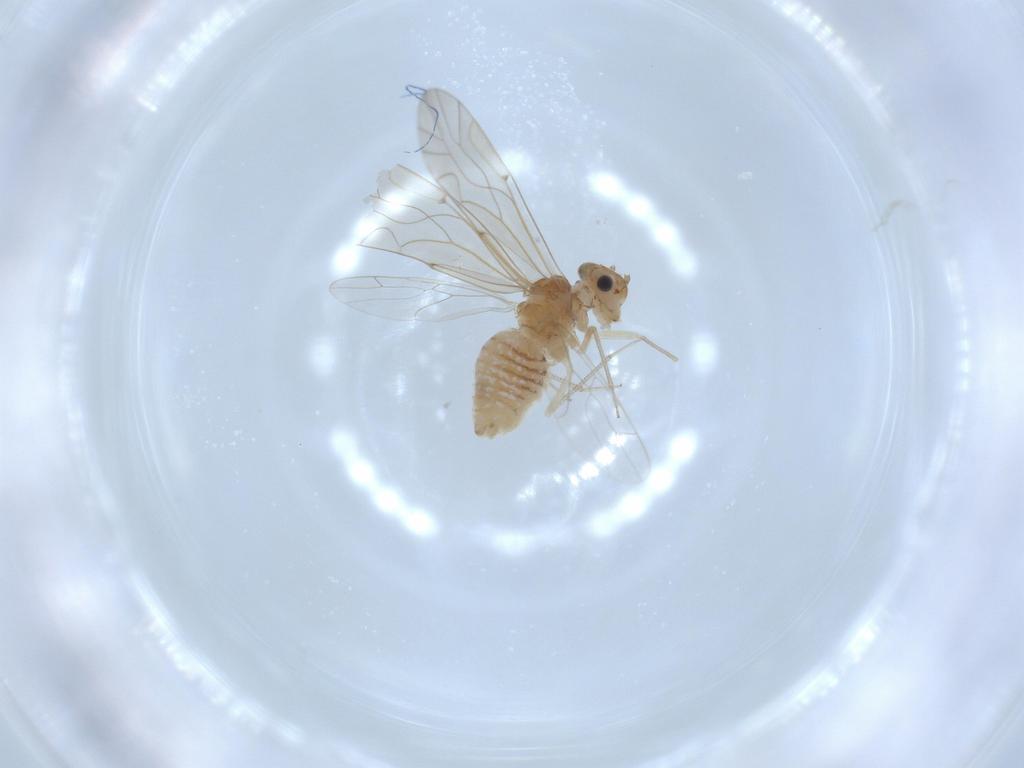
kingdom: Animalia
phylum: Arthropoda
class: Insecta
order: Psocodea
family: Lachesillidae
